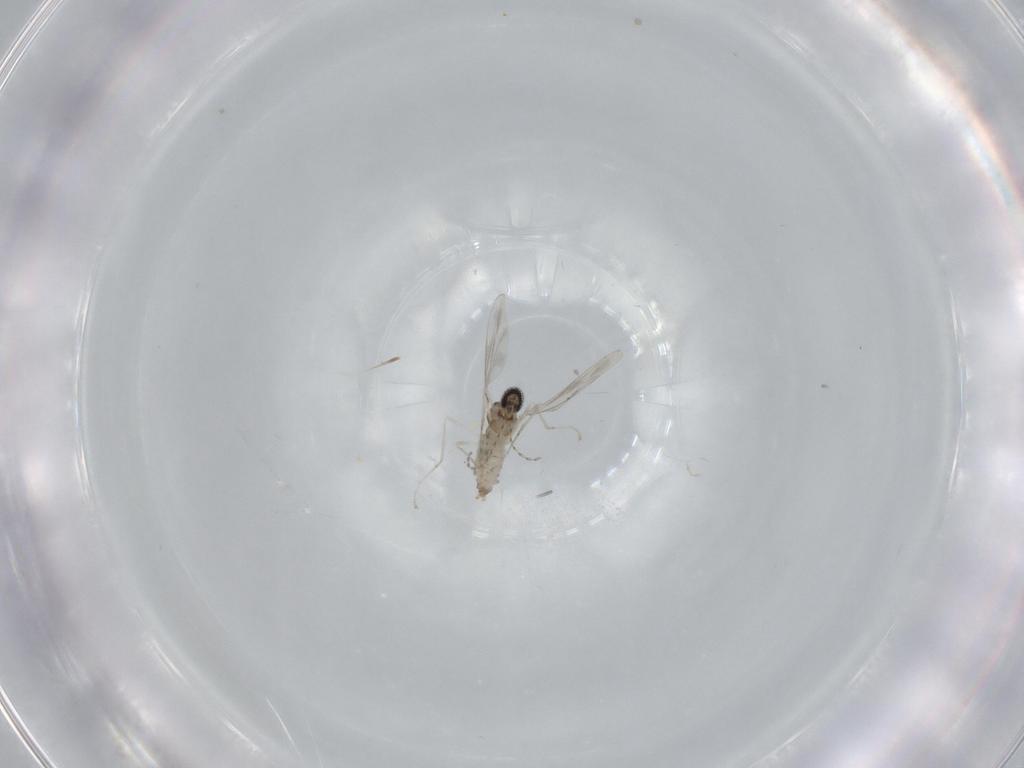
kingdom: Animalia
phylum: Arthropoda
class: Insecta
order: Diptera
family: Cecidomyiidae
